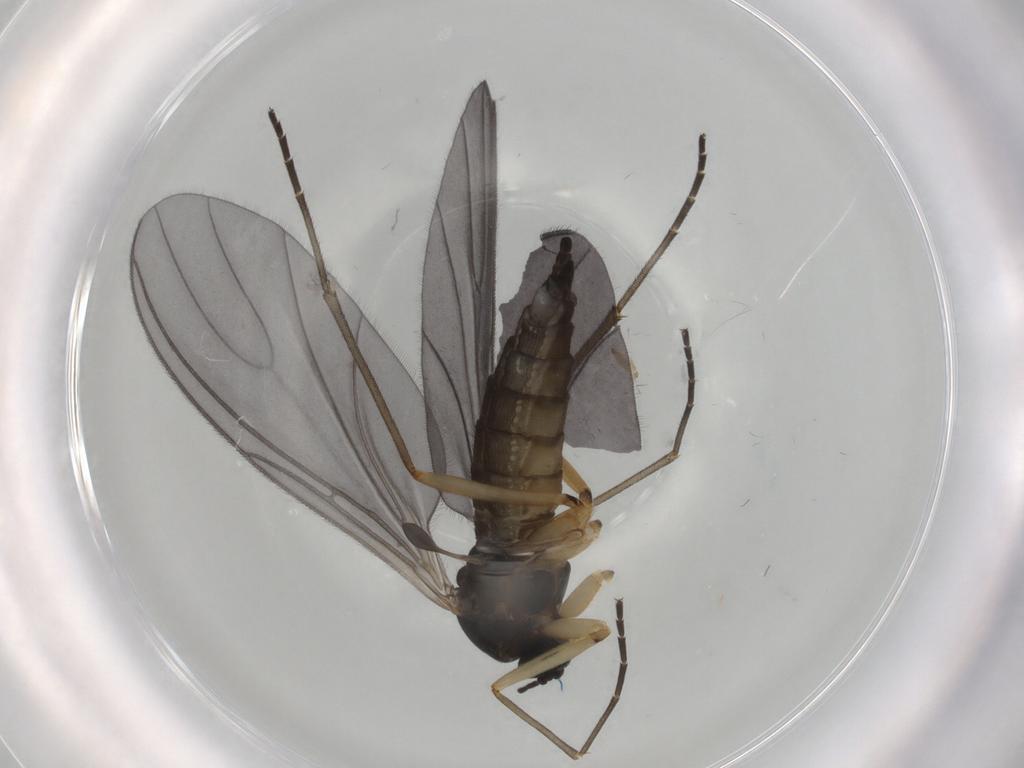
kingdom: Animalia
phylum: Arthropoda
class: Insecta
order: Diptera
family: Sciaridae
